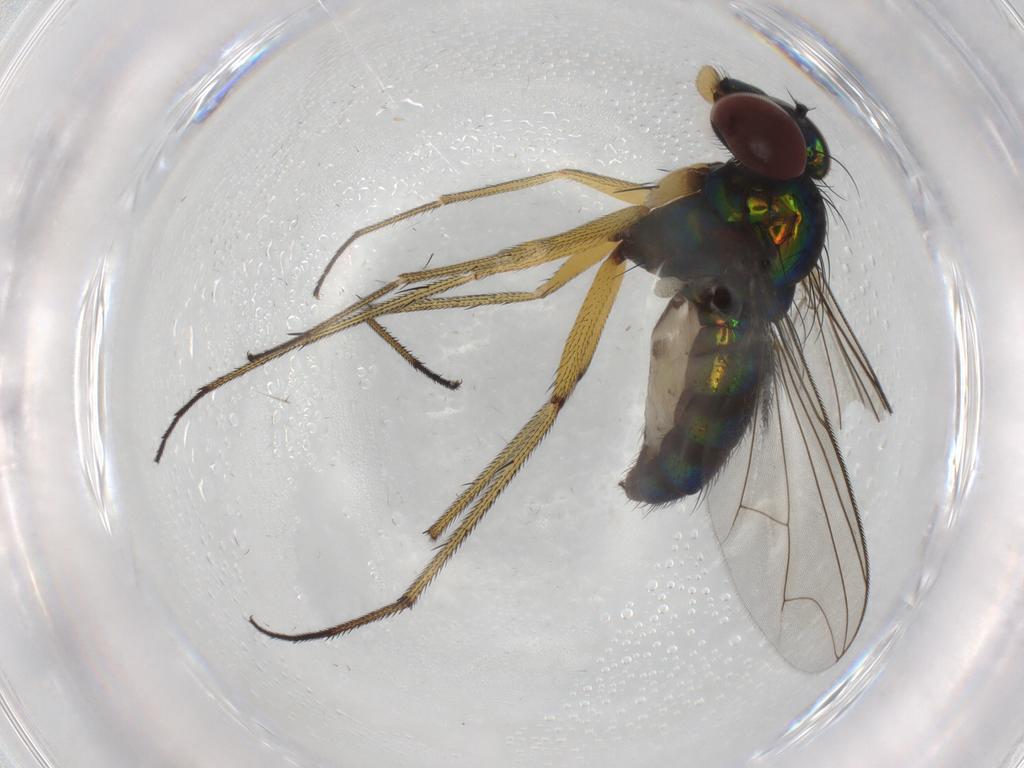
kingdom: Animalia
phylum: Arthropoda
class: Insecta
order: Diptera
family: Dolichopodidae
